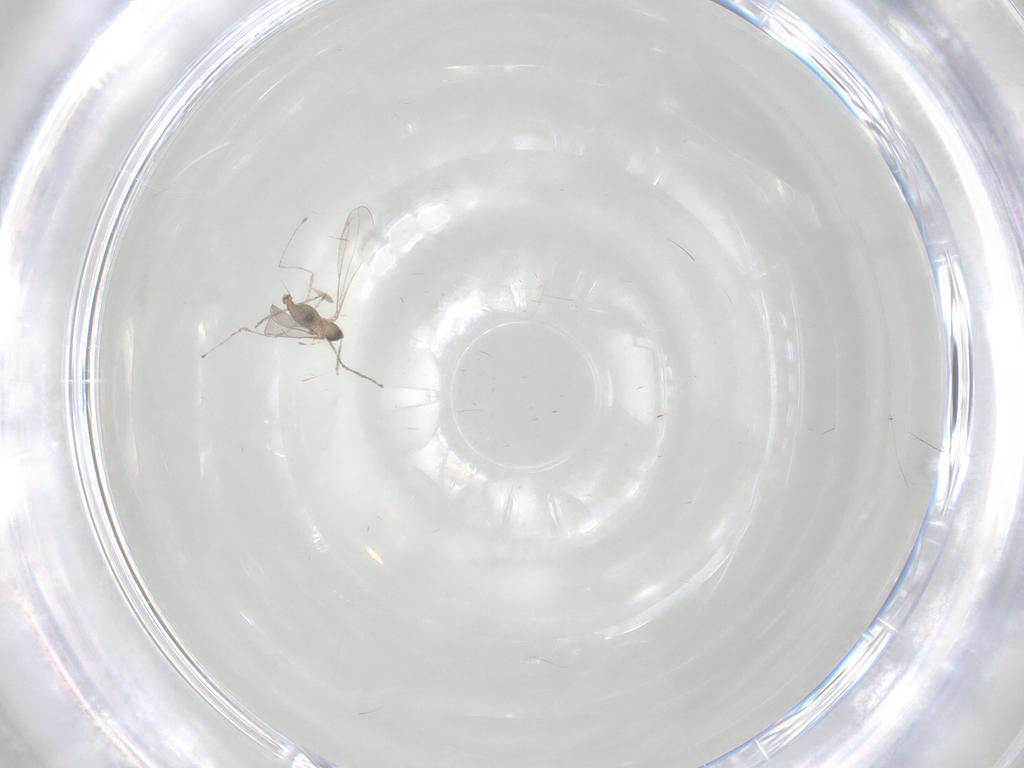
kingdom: Animalia
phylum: Arthropoda
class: Insecta
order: Diptera
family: Cecidomyiidae
